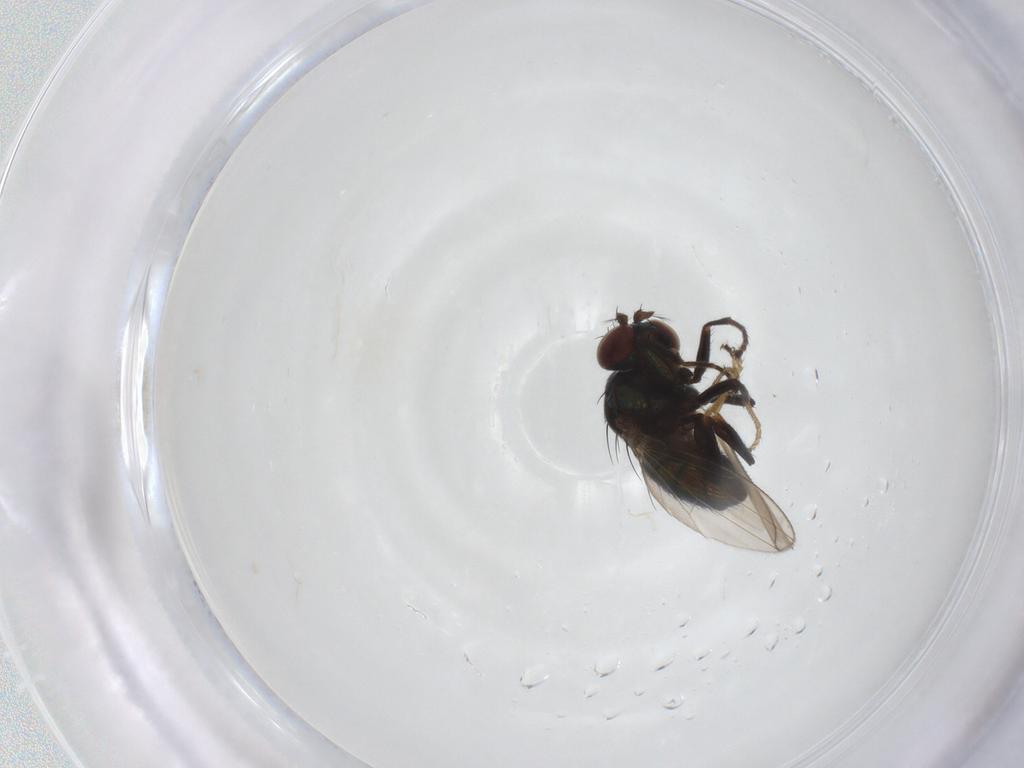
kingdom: Animalia
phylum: Arthropoda
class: Insecta
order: Diptera
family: Ephydridae
